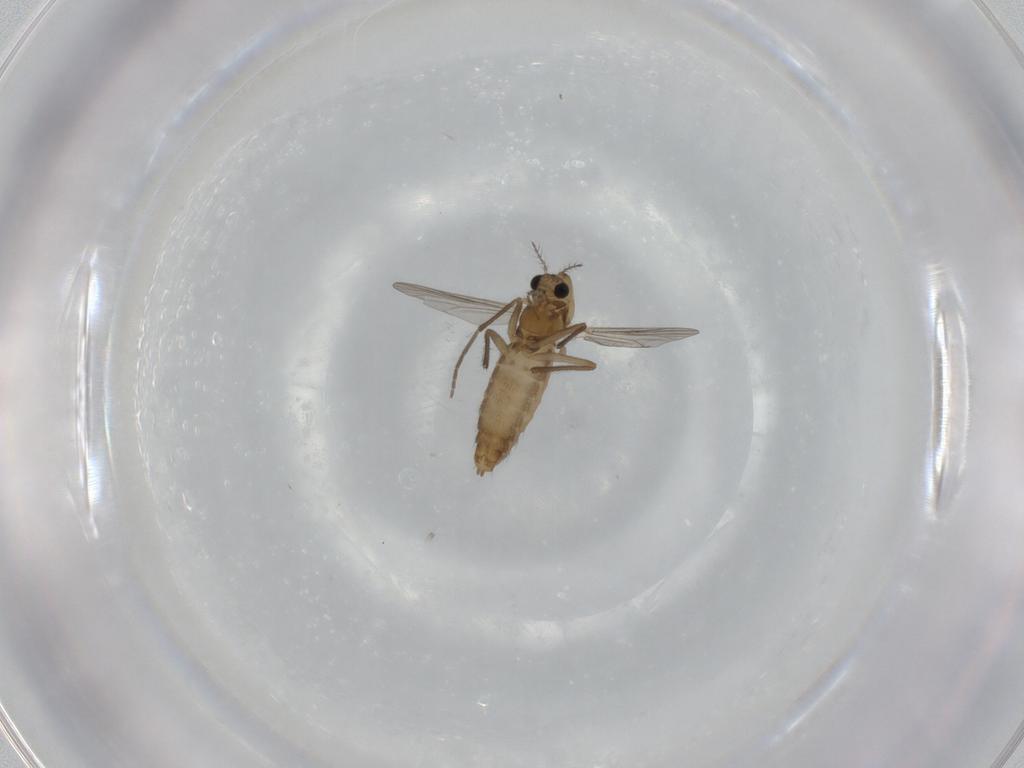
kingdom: Animalia
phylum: Arthropoda
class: Insecta
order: Diptera
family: Chironomidae
